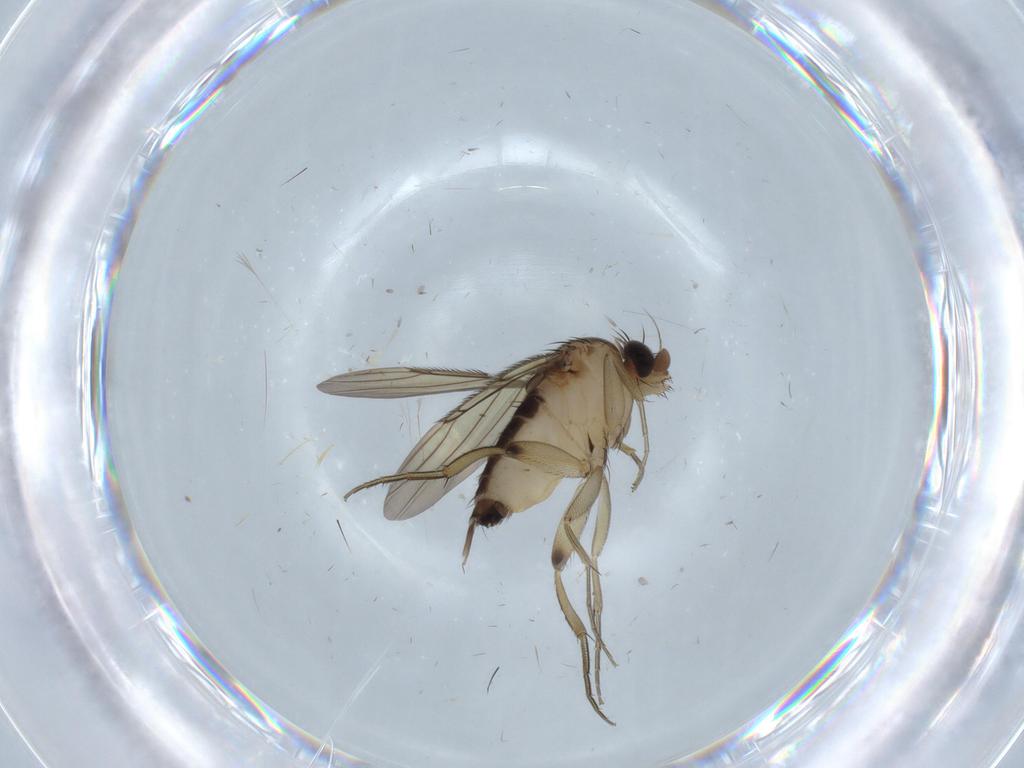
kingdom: Animalia
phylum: Arthropoda
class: Insecta
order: Diptera
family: Phoridae
